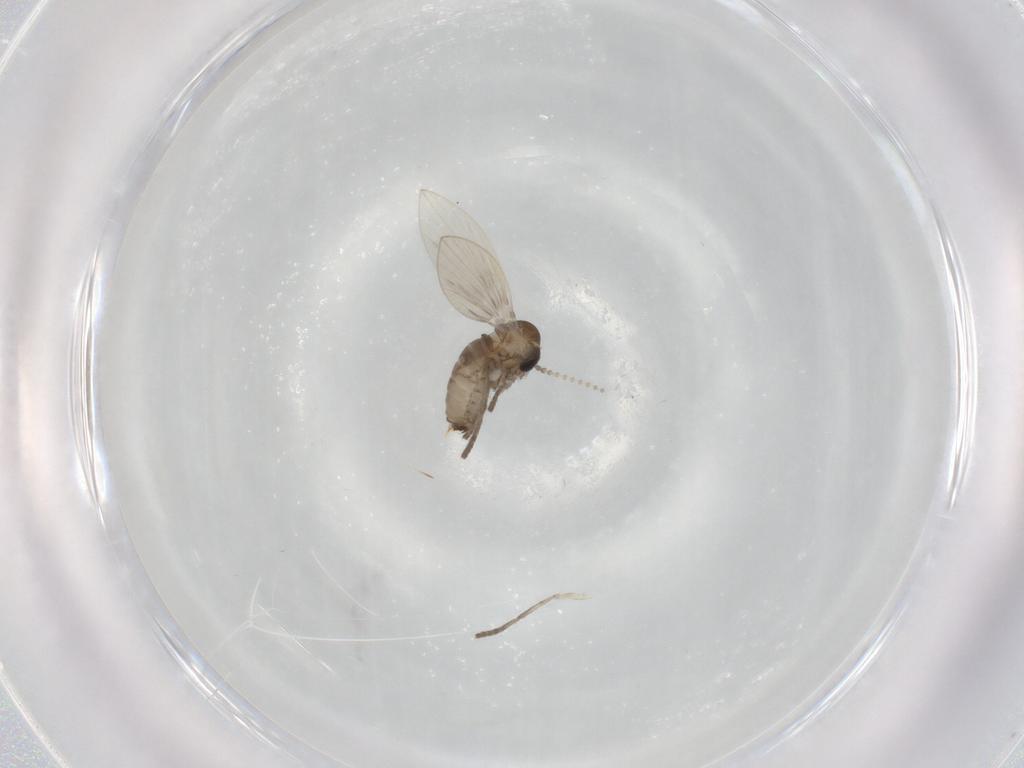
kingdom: Animalia
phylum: Arthropoda
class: Insecta
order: Diptera
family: Psychodidae
